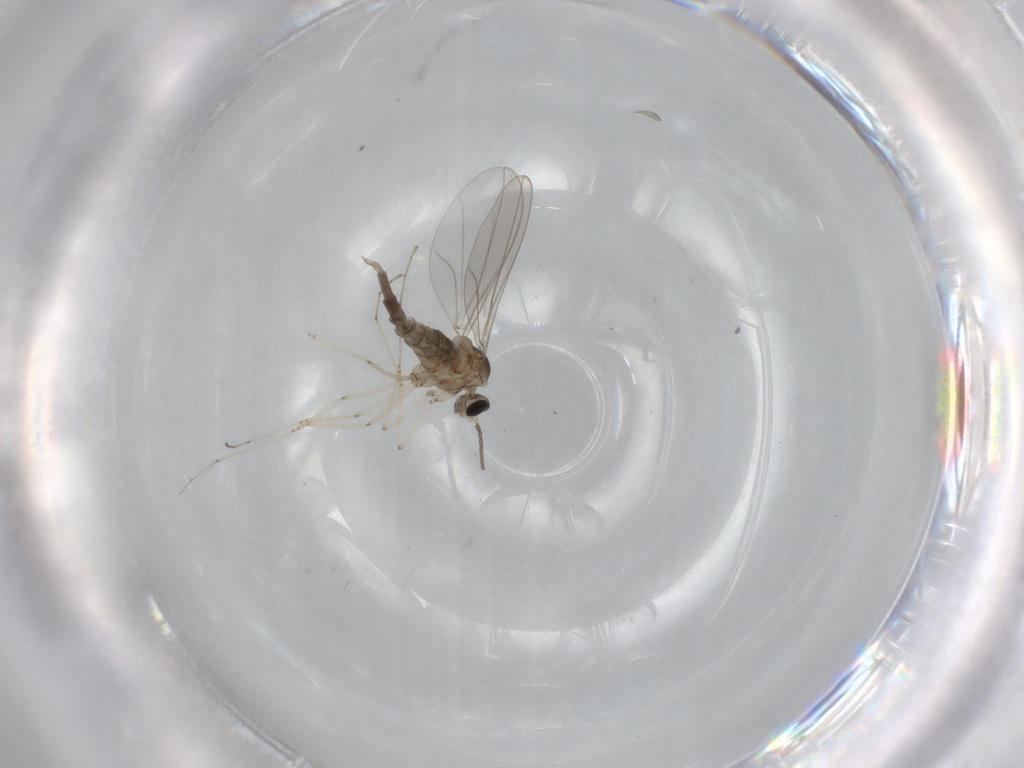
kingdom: Animalia
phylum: Arthropoda
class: Insecta
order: Diptera
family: Cecidomyiidae
